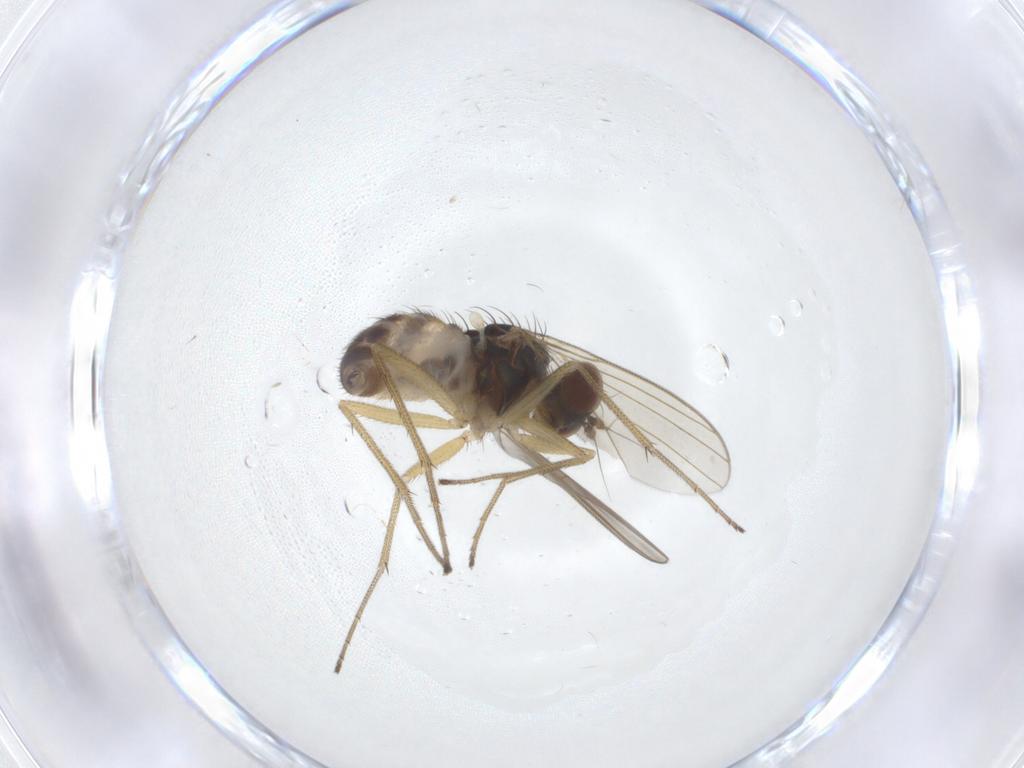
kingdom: Animalia
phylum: Arthropoda
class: Insecta
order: Diptera
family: Dolichopodidae
